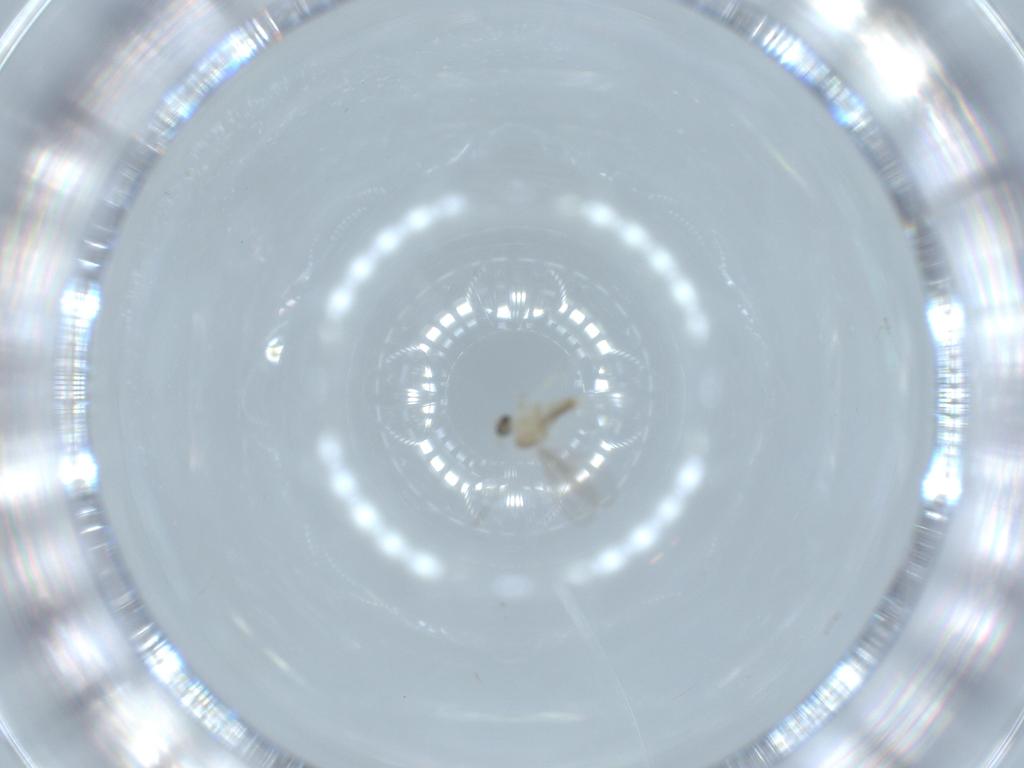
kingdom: Animalia
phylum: Arthropoda
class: Insecta
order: Diptera
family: Cecidomyiidae
